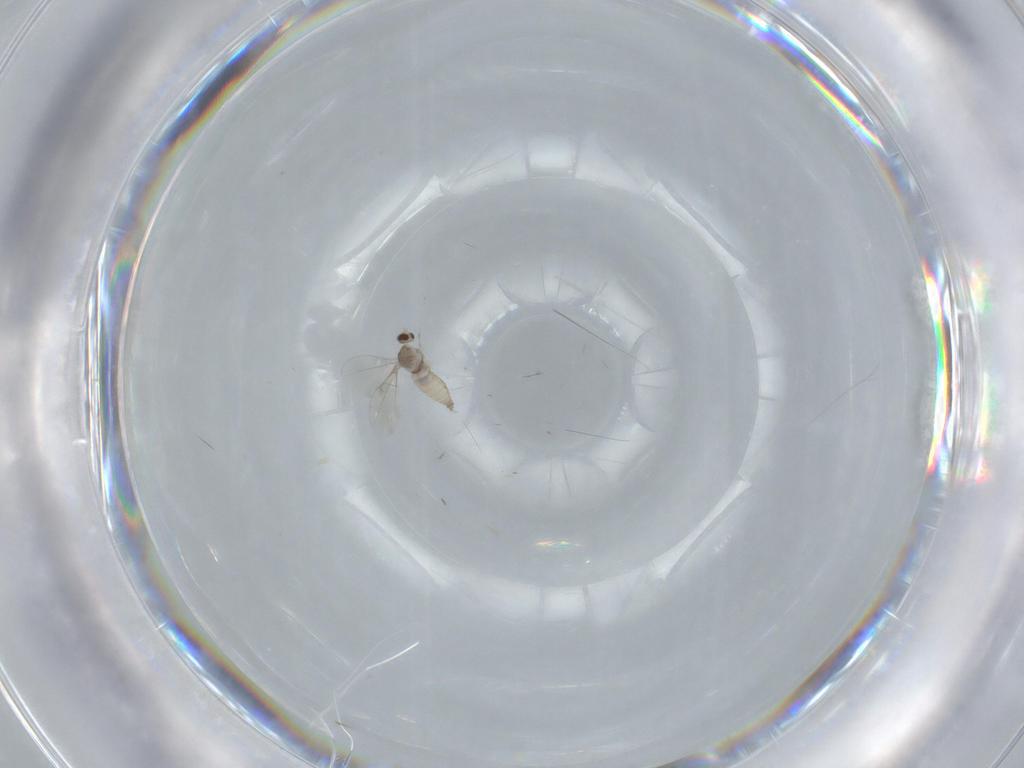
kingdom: Animalia
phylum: Arthropoda
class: Insecta
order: Diptera
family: Cecidomyiidae
